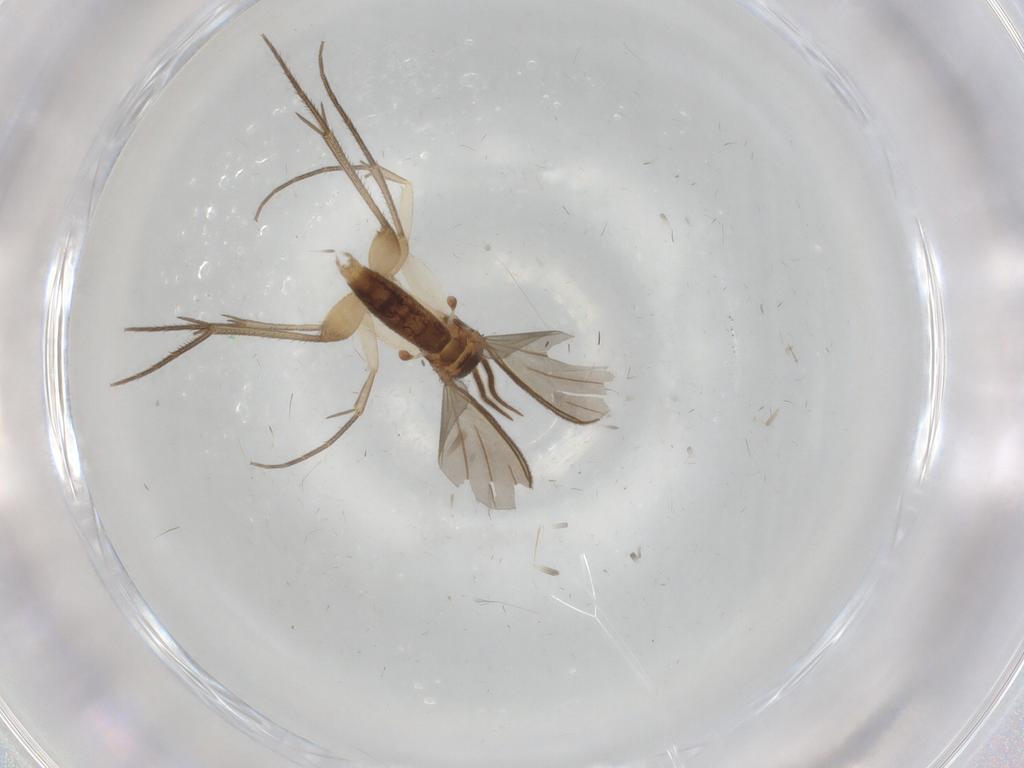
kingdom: Animalia
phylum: Arthropoda
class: Insecta
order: Diptera
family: Mycetophilidae
